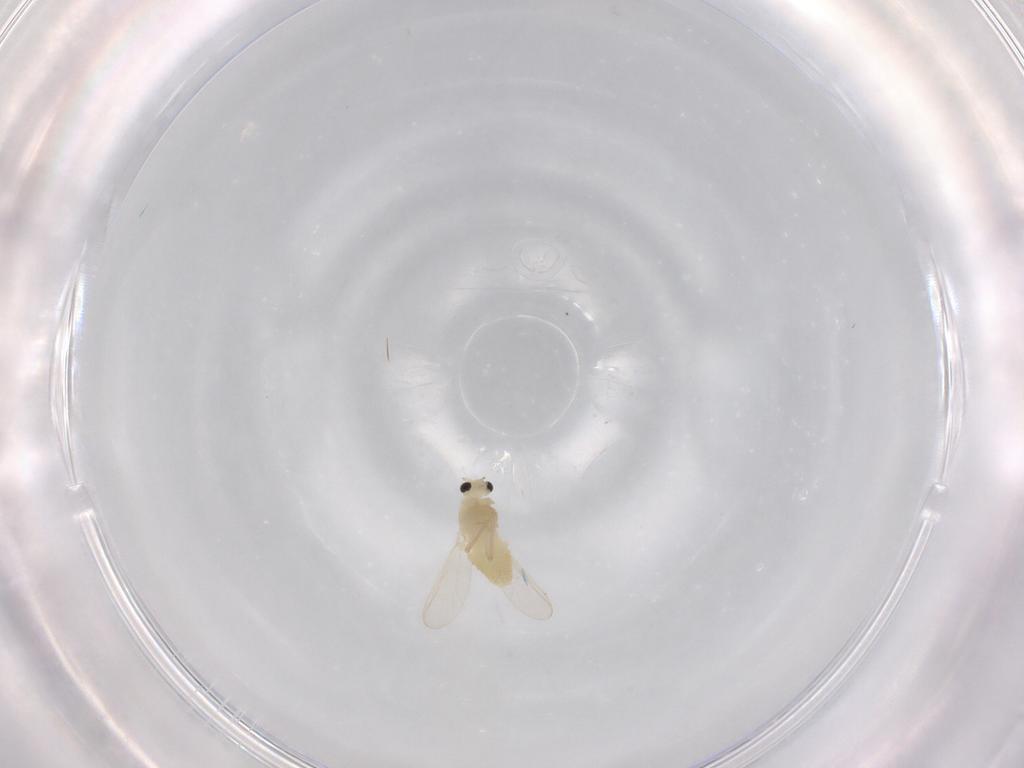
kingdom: Animalia
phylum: Arthropoda
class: Insecta
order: Diptera
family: Chironomidae
